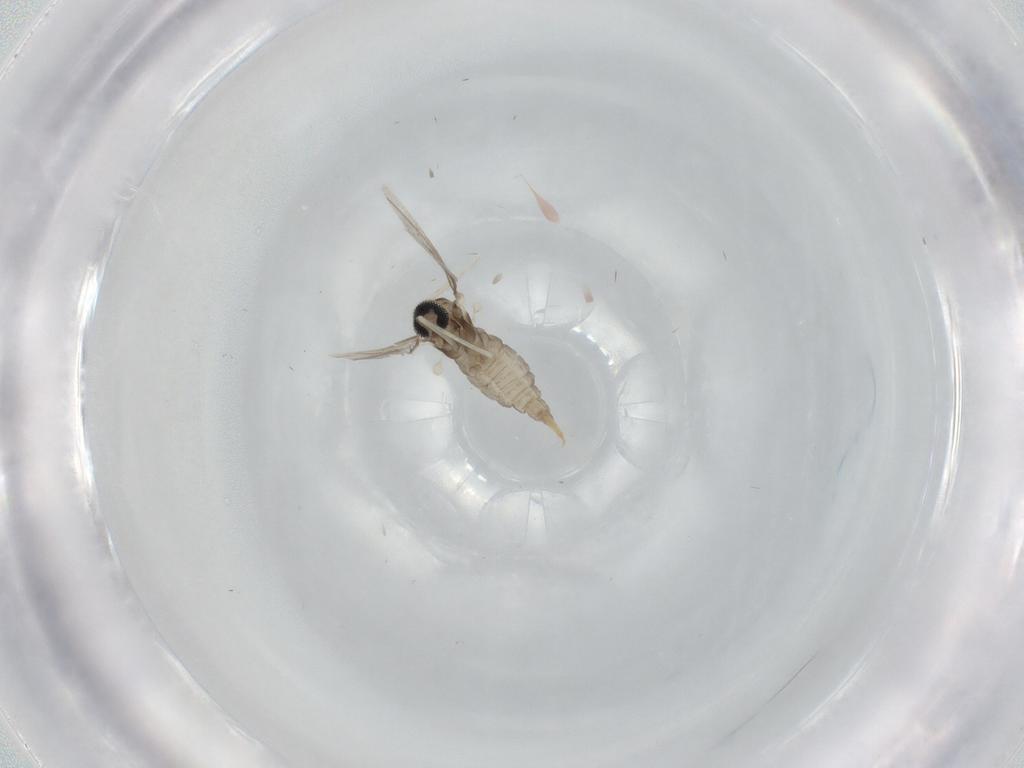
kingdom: Animalia
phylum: Arthropoda
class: Insecta
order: Diptera
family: Cecidomyiidae
